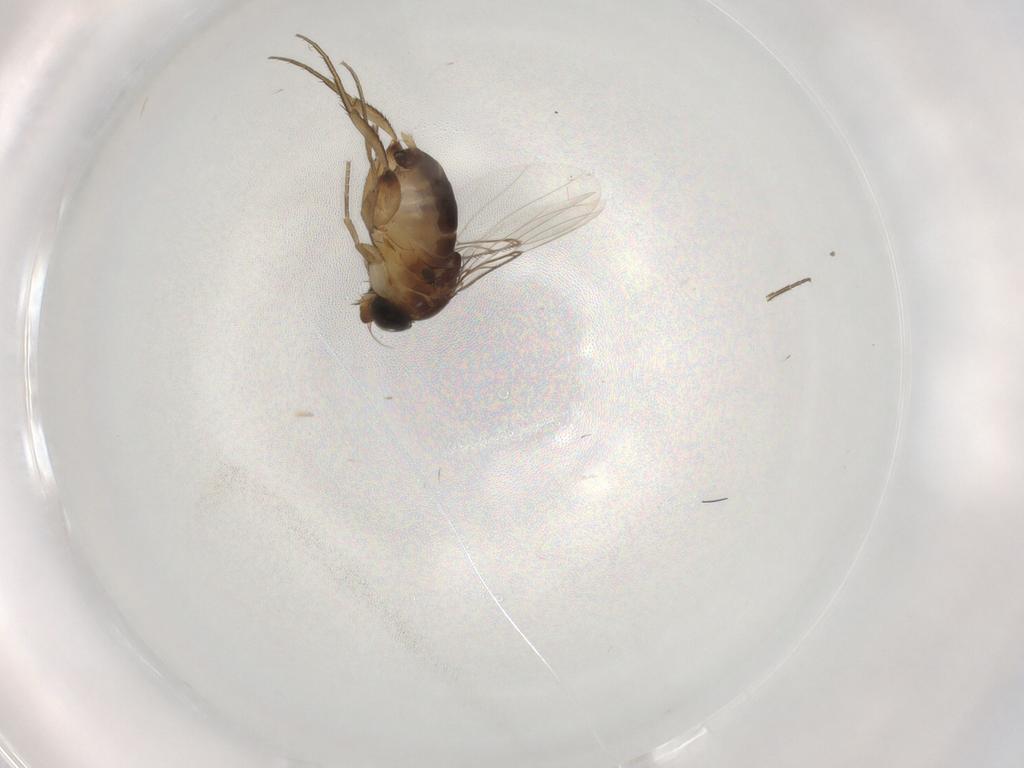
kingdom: Animalia
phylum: Arthropoda
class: Insecta
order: Diptera
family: Phoridae
